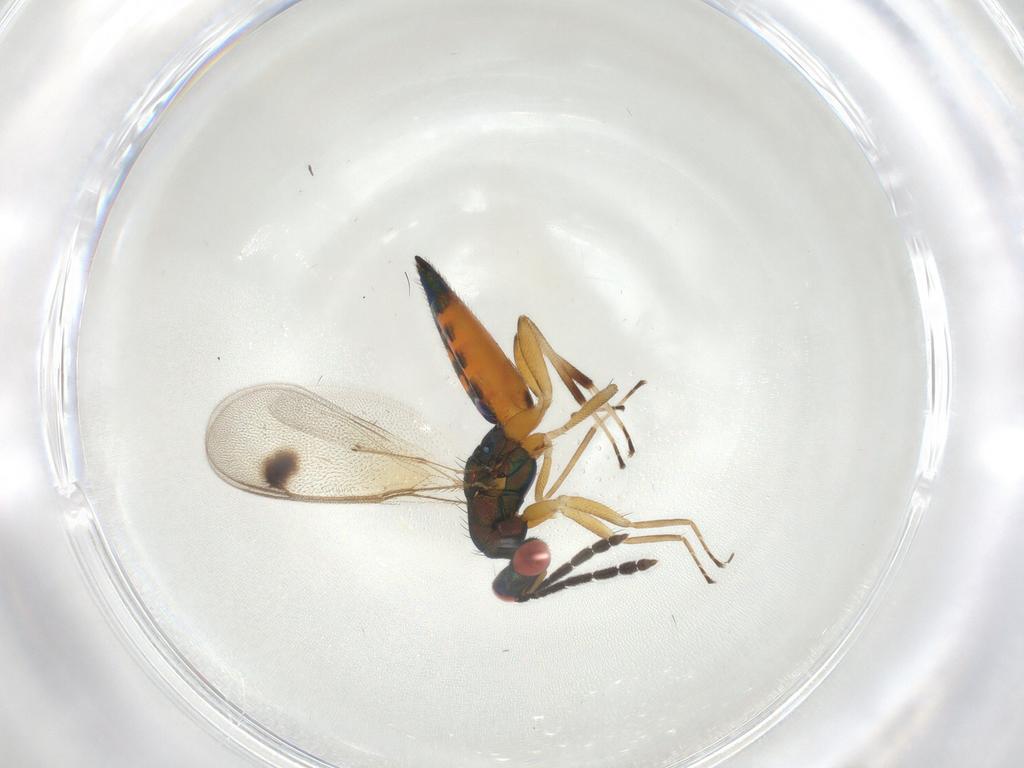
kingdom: Animalia
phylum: Arthropoda
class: Insecta
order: Hymenoptera
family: Eulophidae
